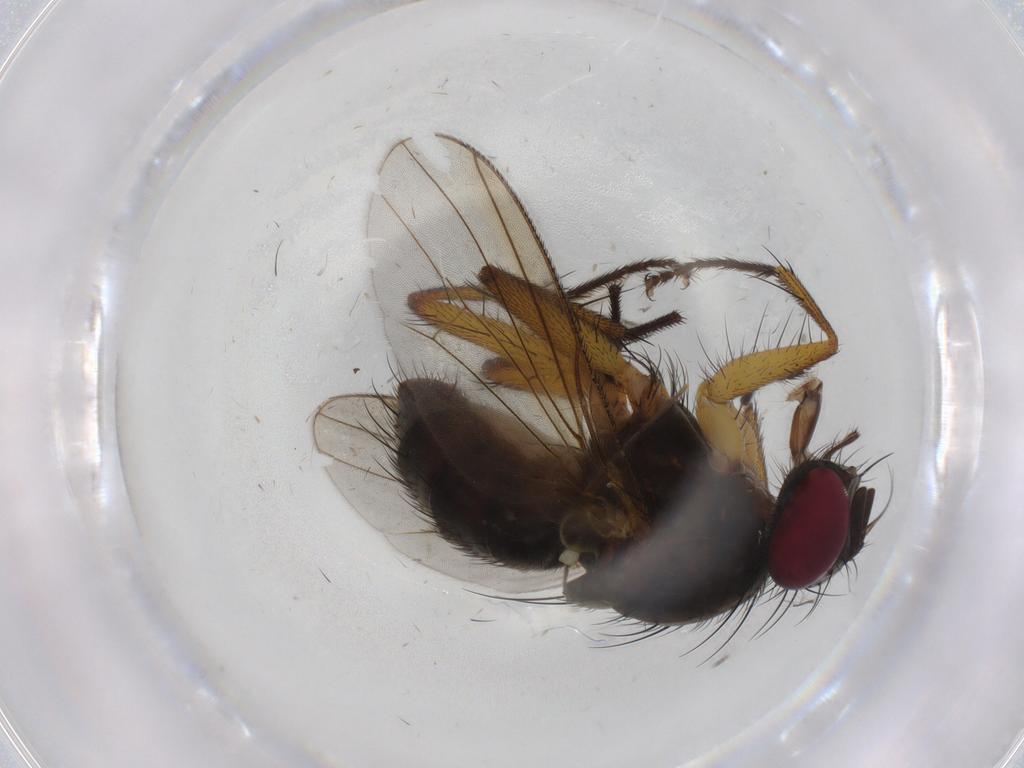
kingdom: Animalia
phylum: Arthropoda
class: Insecta
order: Diptera
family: Muscidae
